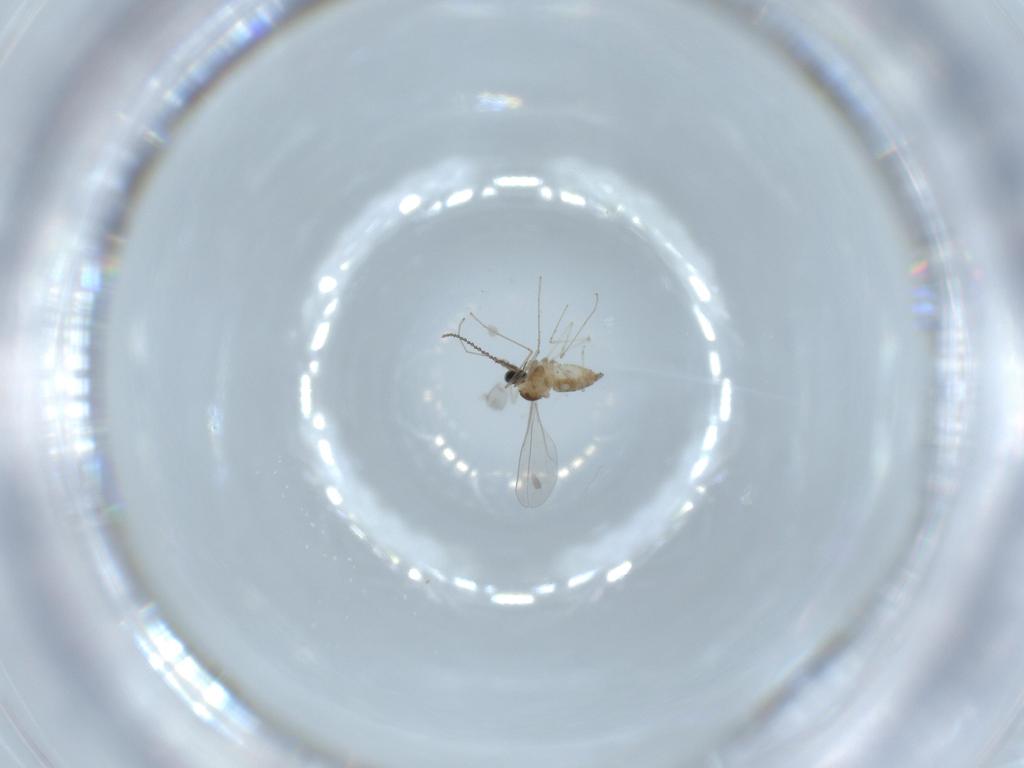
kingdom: Animalia
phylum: Arthropoda
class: Insecta
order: Diptera
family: Cecidomyiidae
